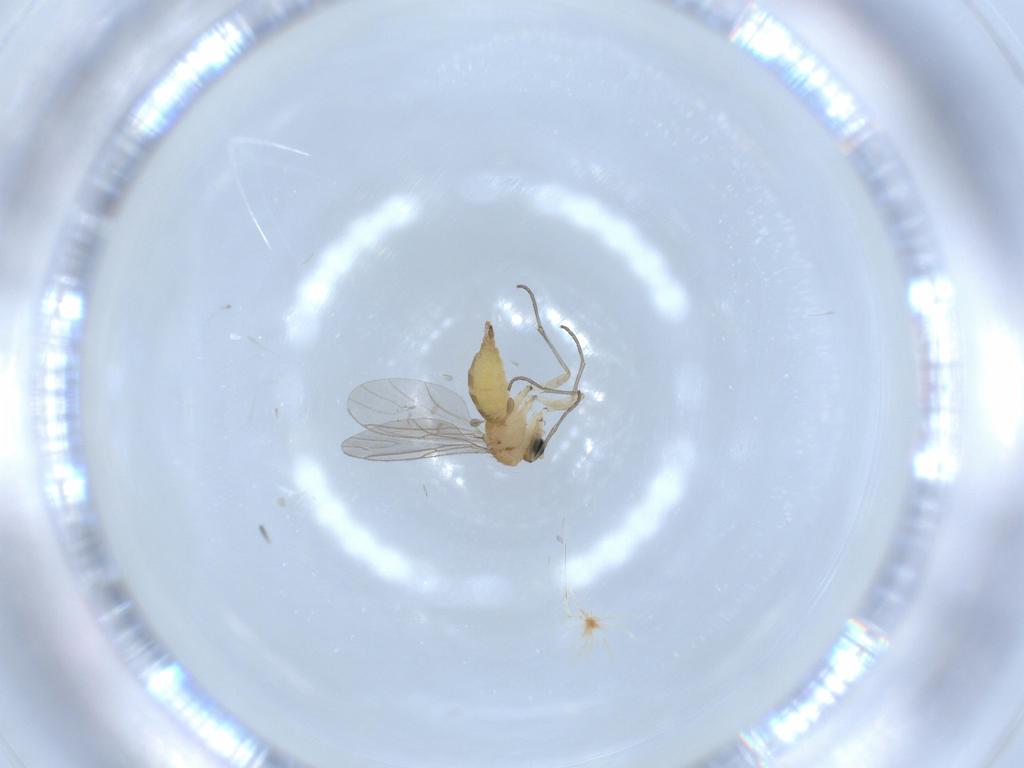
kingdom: Animalia
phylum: Arthropoda
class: Insecta
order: Diptera
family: Sciaridae
